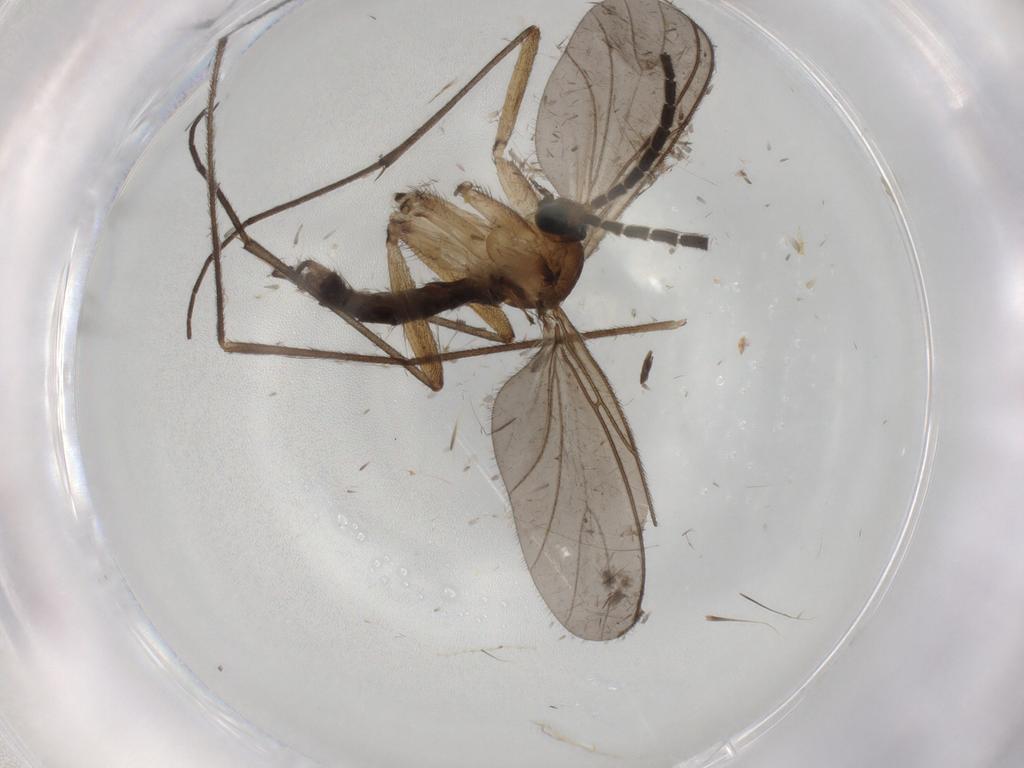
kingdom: Animalia
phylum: Arthropoda
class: Insecta
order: Diptera
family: Limoniidae
